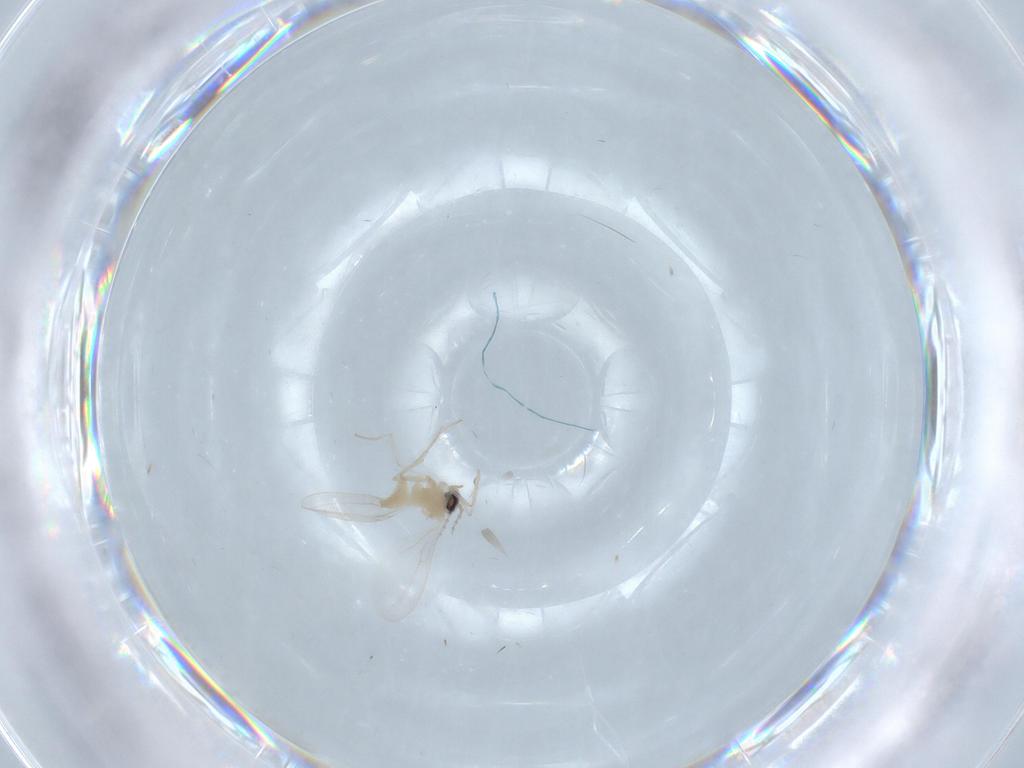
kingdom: Animalia
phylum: Arthropoda
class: Insecta
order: Diptera
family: Cecidomyiidae
